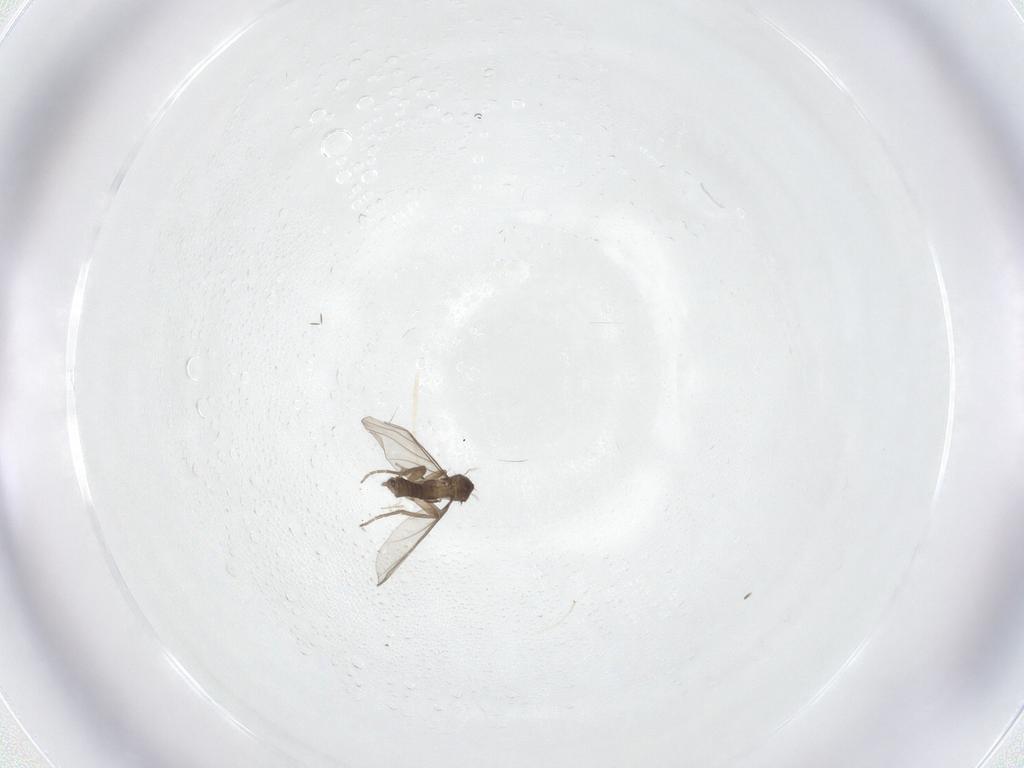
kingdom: Animalia
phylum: Arthropoda
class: Insecta
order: Diptera
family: Phoridae
